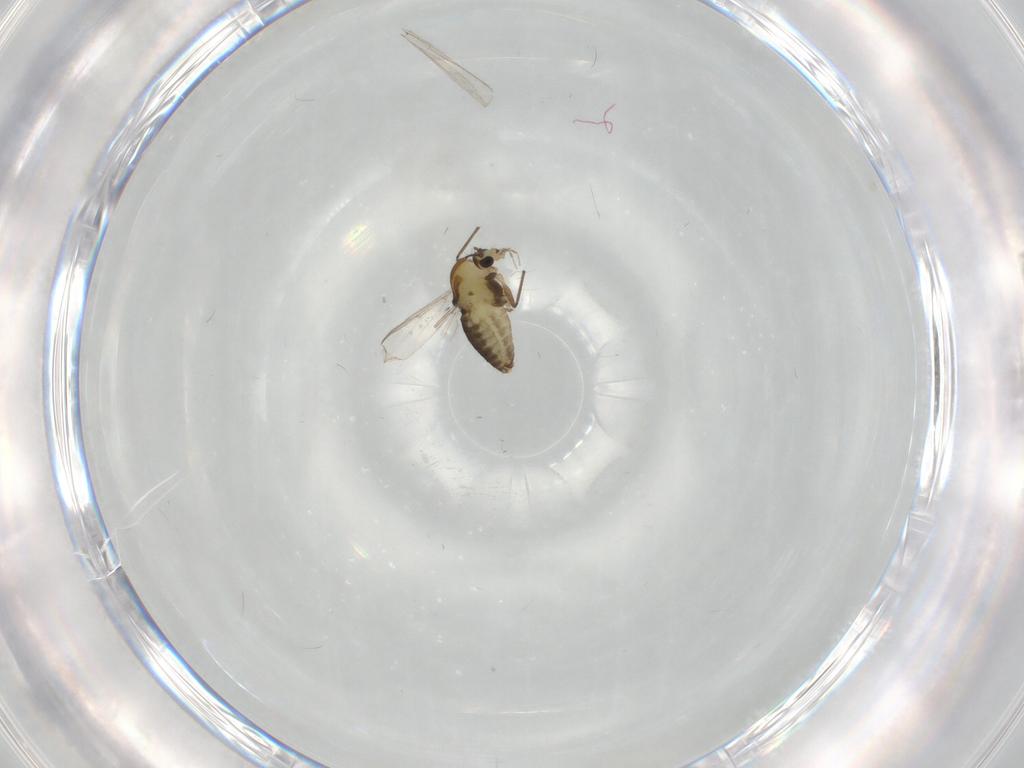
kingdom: Animalia
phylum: Arthropoda
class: Insecta
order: Diptera
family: Chironomidae
